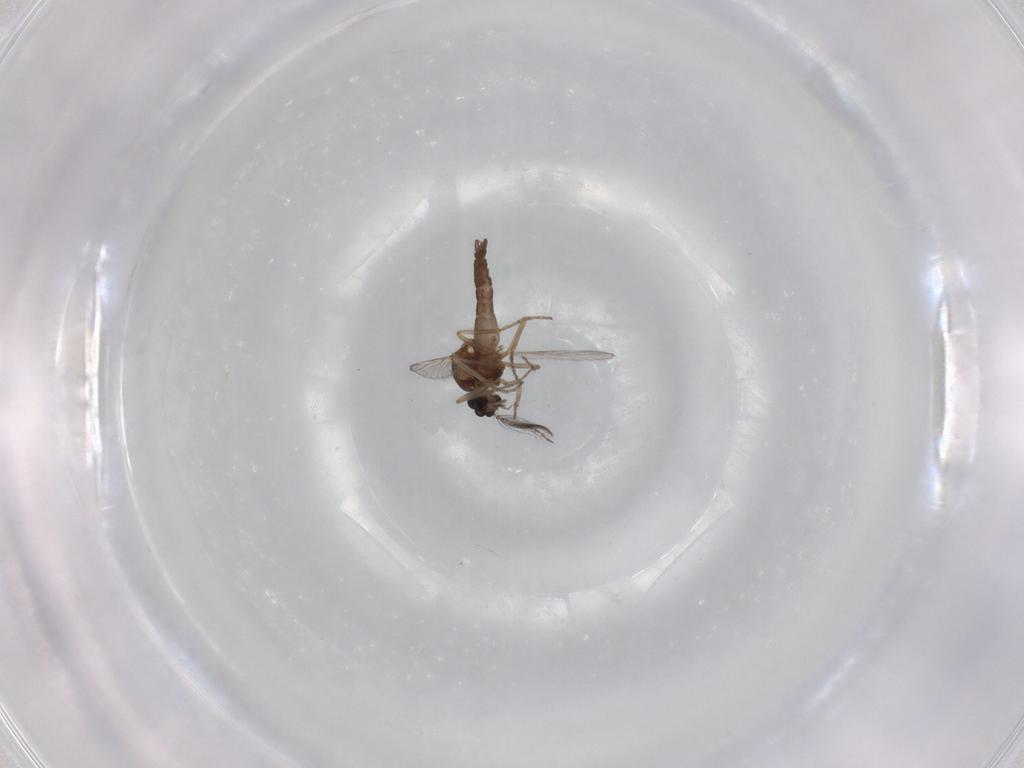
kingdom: Animalia
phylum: Arthropoda
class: Insecta
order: Diptera
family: Ceratopogonidae
